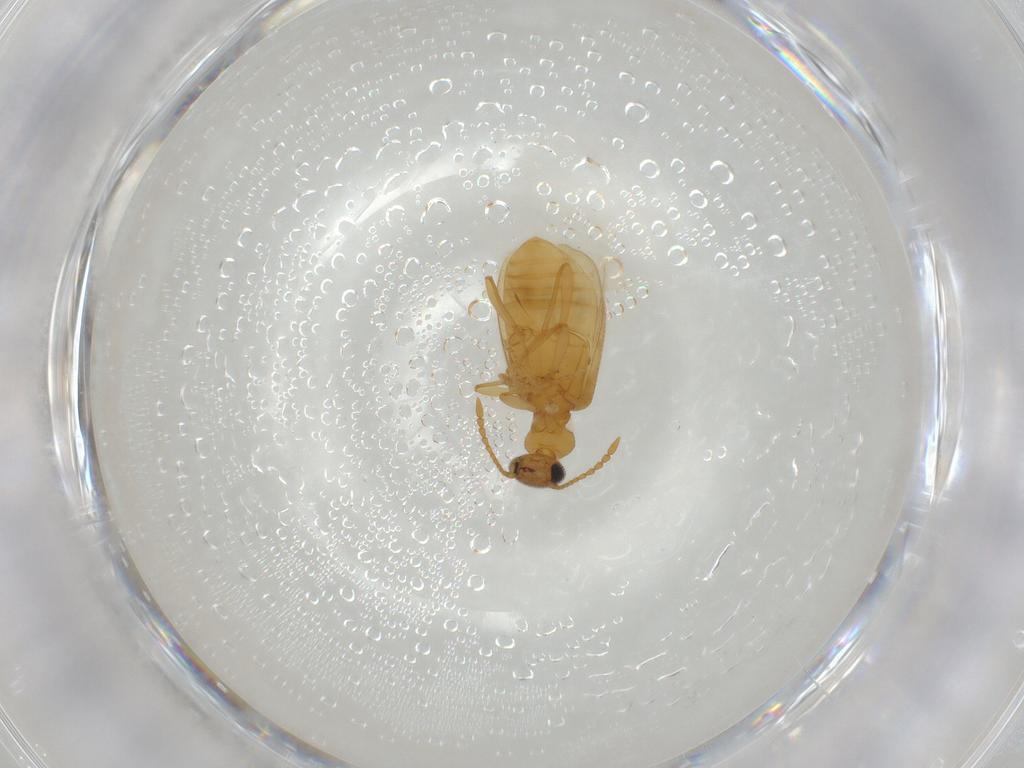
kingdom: Animalia
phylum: Arthropoda
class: Insecta
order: Coleoptera
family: Anthicidae
